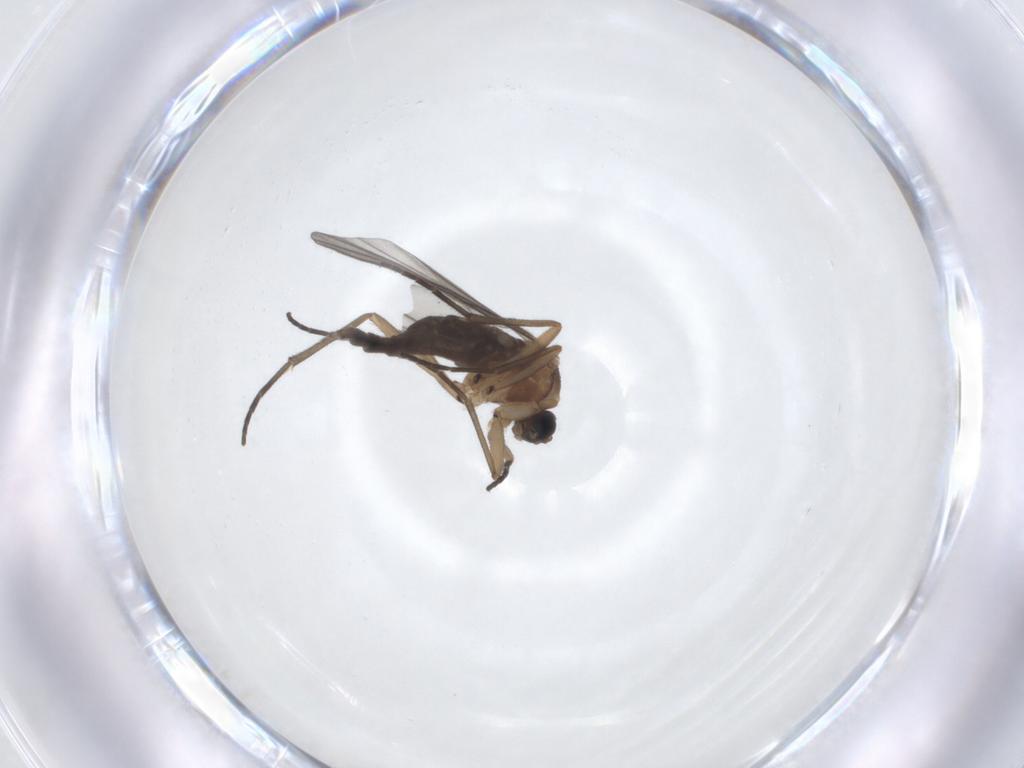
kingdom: Animalia
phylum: Arthropoda
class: Insecta
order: Diptera
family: Sciaridae
